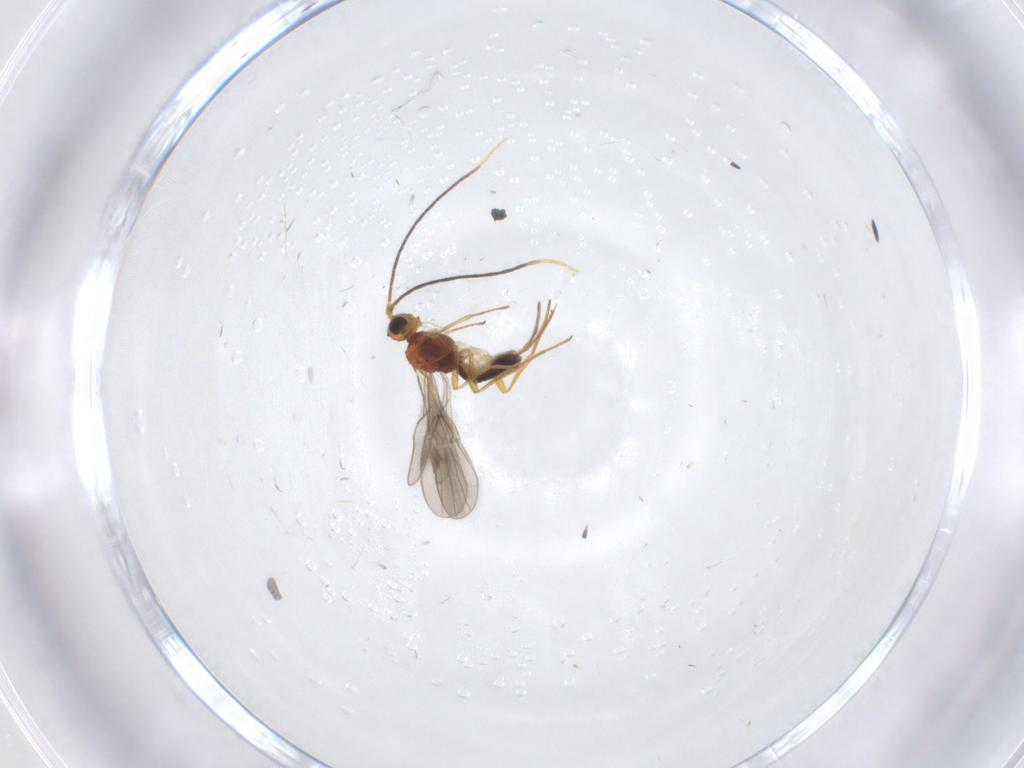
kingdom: Animalia
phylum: Arthropoda
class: Insecta
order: Hymenoptera
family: Braconidae
